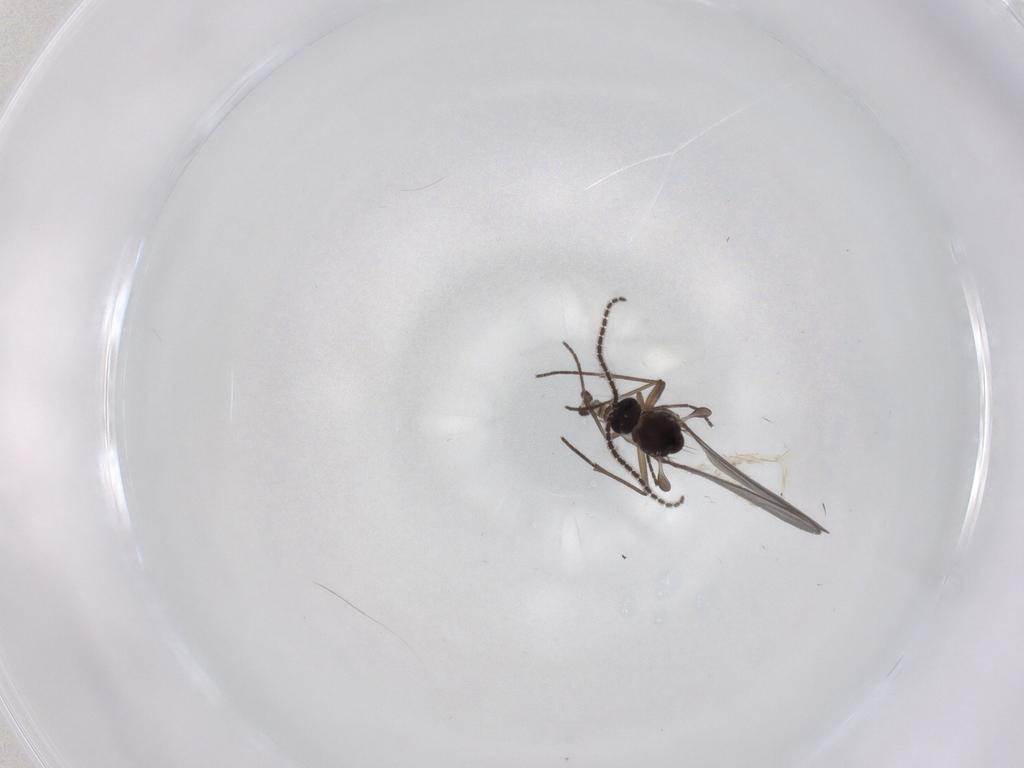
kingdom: Animalia
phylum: Arthropoda
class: Insecta
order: Diptera
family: Sciaridae
